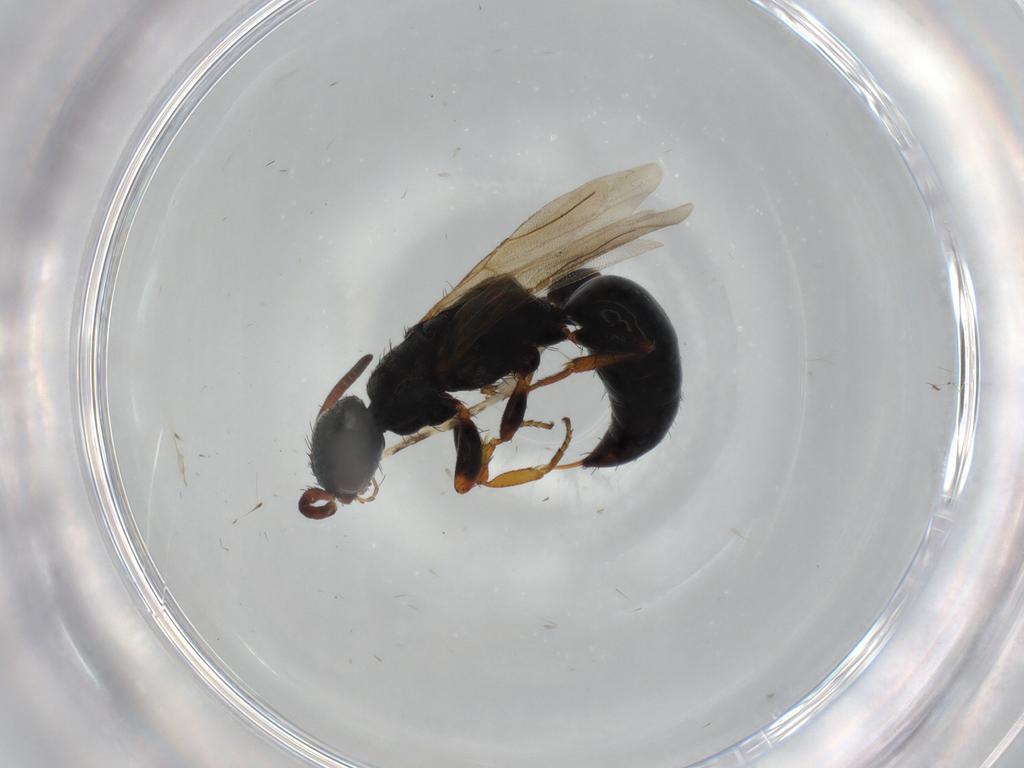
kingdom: Animalia
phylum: Arthropoda
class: Insecta
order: Hymenoptera
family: Bethylidae
